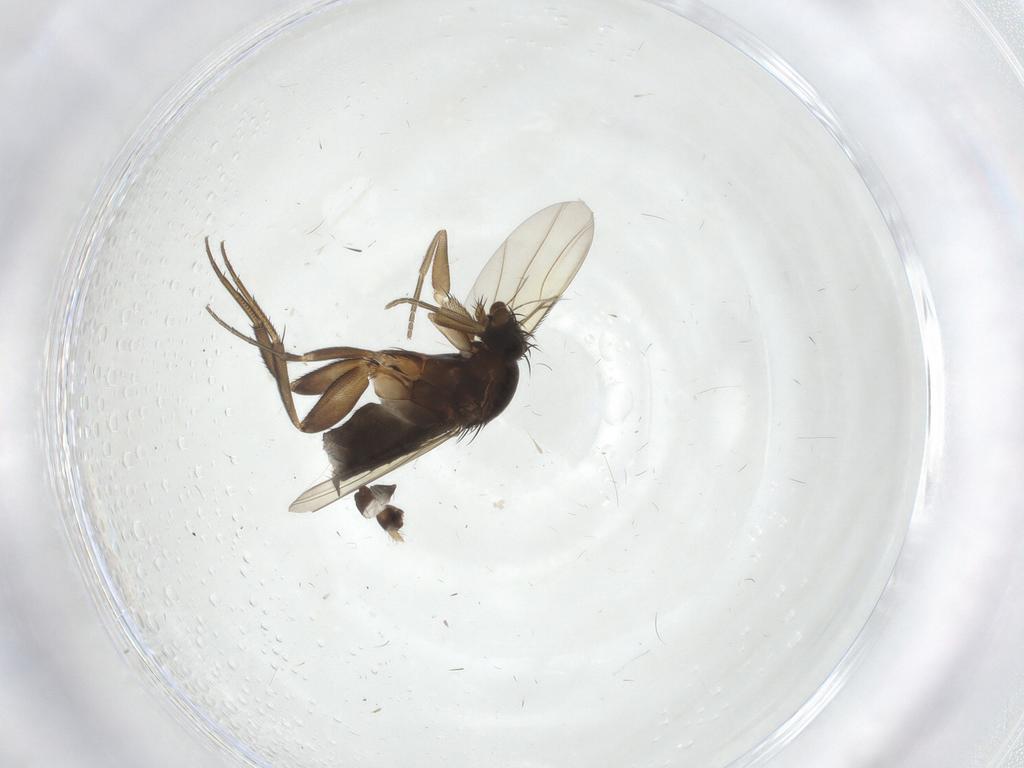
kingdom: Animalia
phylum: Arthropoda
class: Insecta
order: Diptera
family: Phoridae
